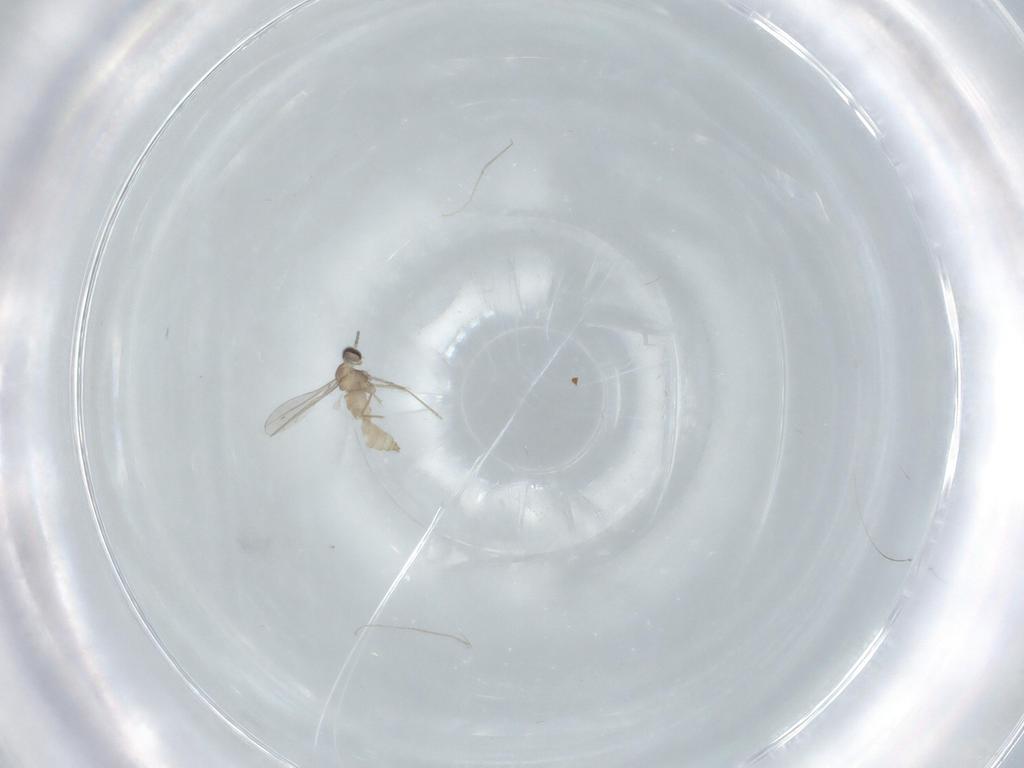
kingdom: Animalia
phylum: Arthropoda
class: Insecta
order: Diptera
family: Cecidomyiidae
